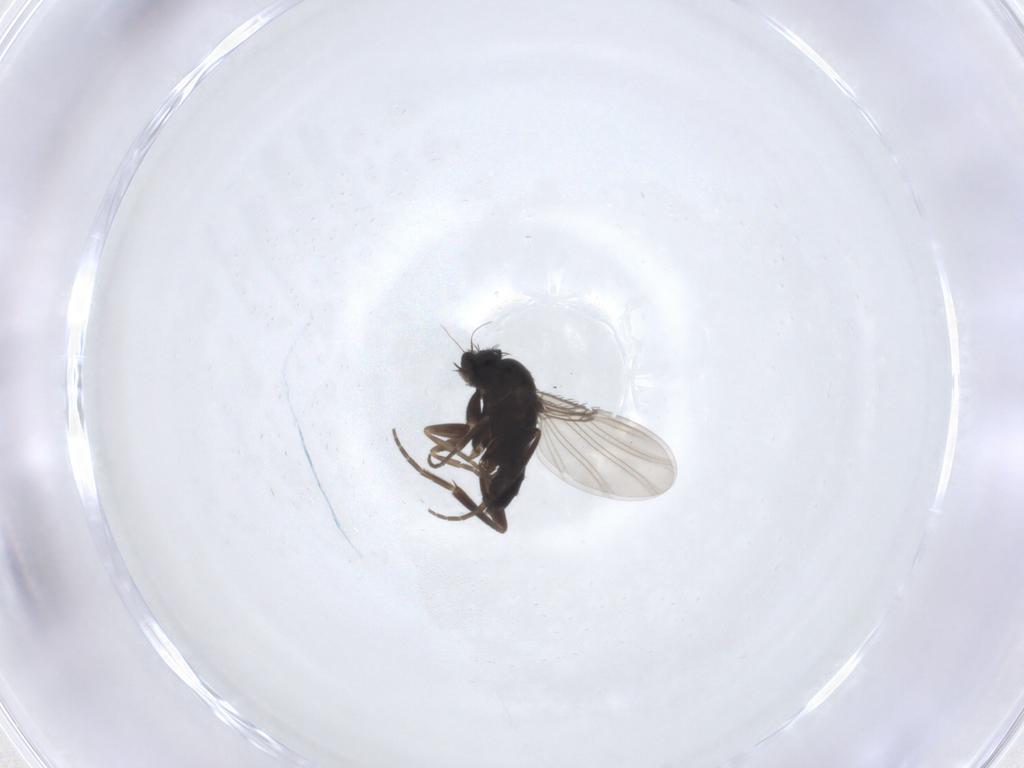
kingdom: Animalia
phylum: Arthropoda
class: Insecta
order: Diptera
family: Phoridae
